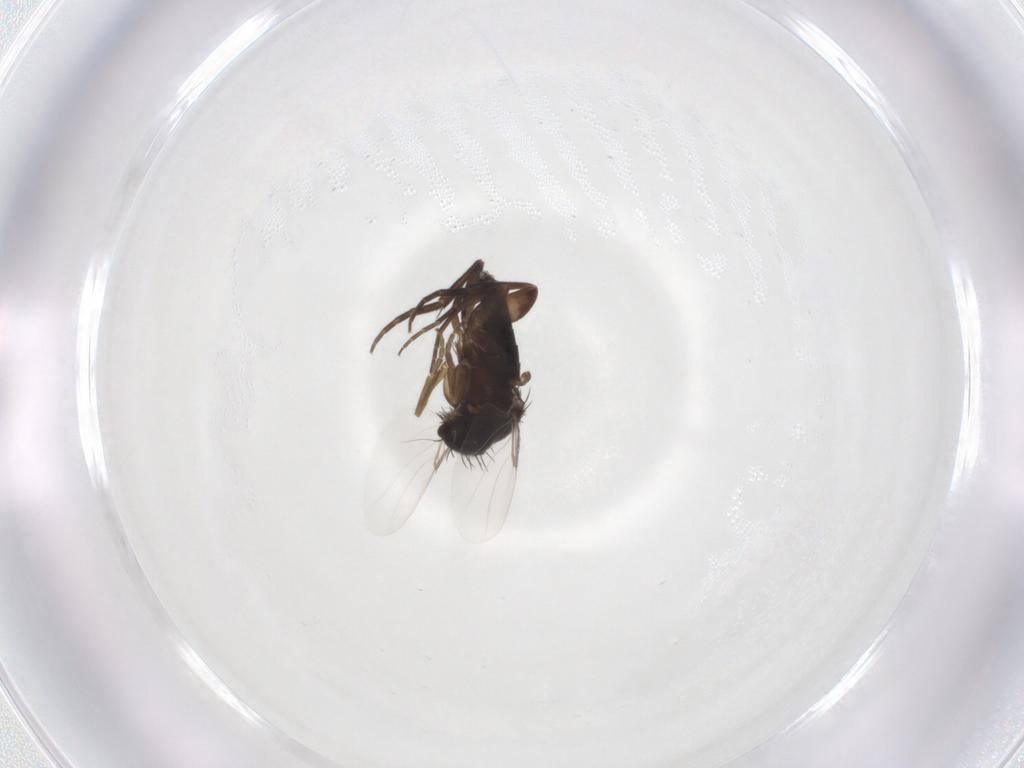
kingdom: Animalia
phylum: Arthropoda
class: Insecta
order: Diptera
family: Phoridae
